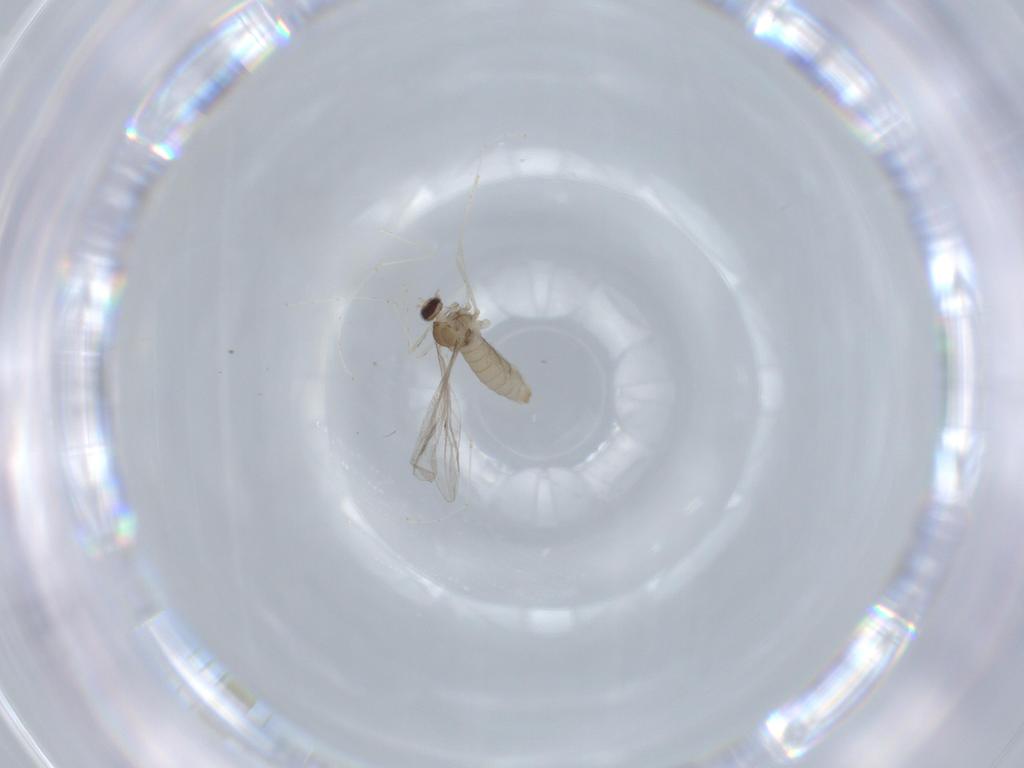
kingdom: Animalia
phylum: Arthropoda
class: Insecta
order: Diptera
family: Cecidomyiidae
